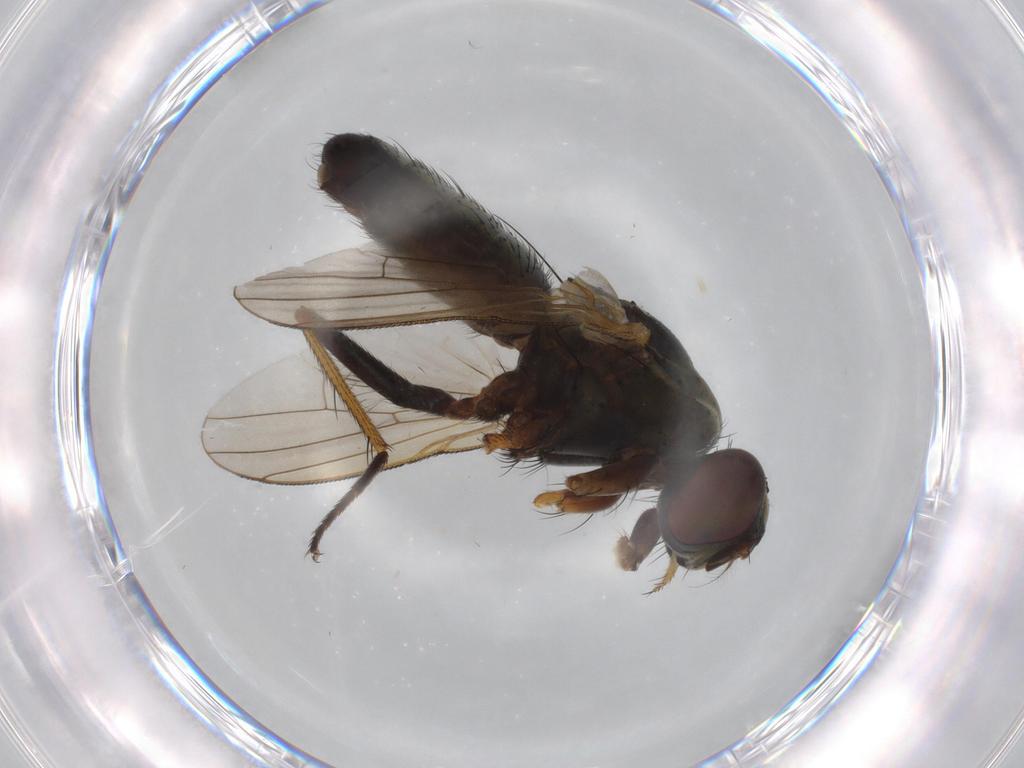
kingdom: Animalia
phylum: Arthropoda
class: Insecta
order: Diptera
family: Muscidae
